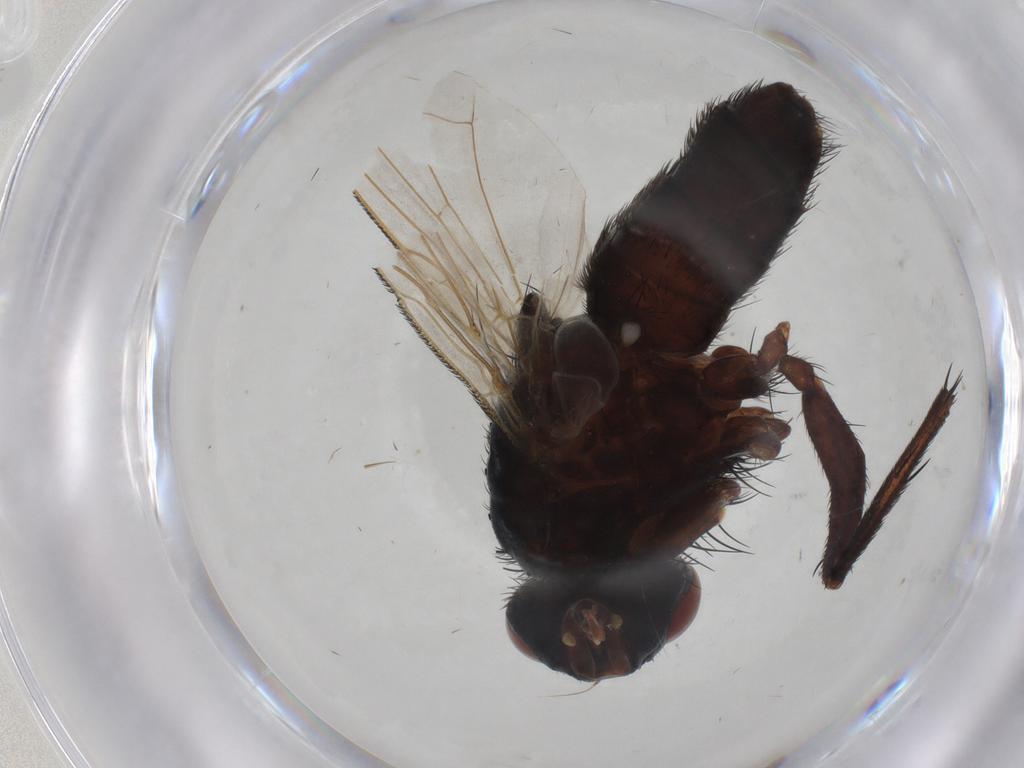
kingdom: Animalia
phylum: Arthropoda
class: Insecta
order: Diptera
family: Calliphoridae
